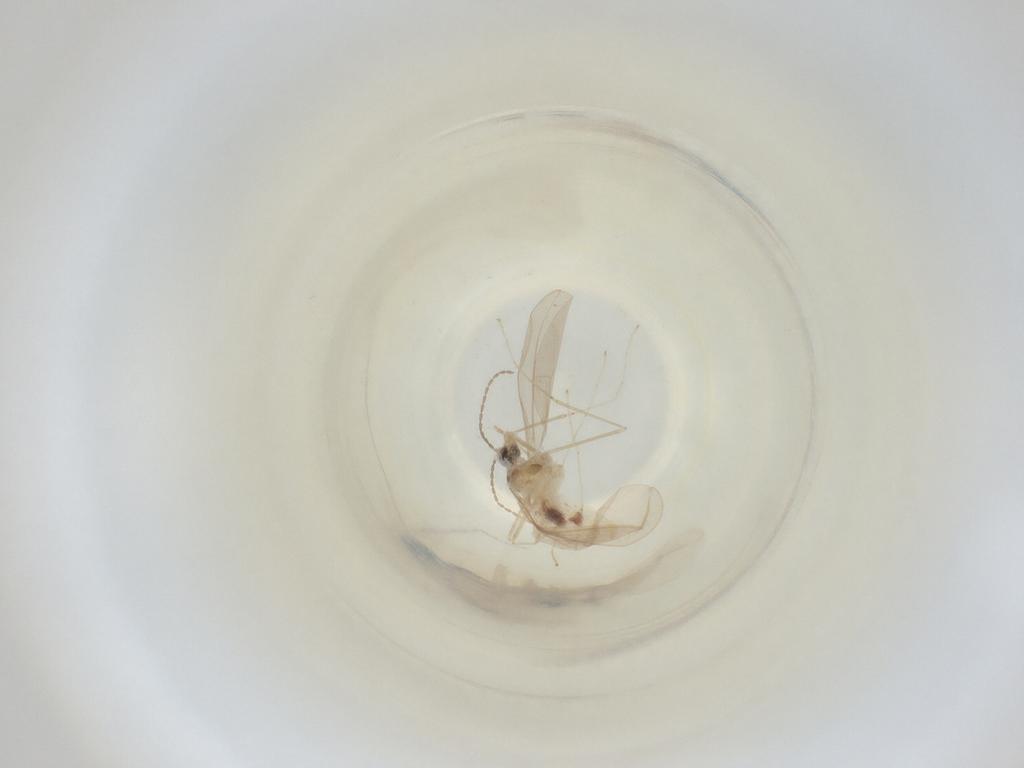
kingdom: Animalia
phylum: Arthropoda
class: Insecta
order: Diptera
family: Cecidomyiidae
